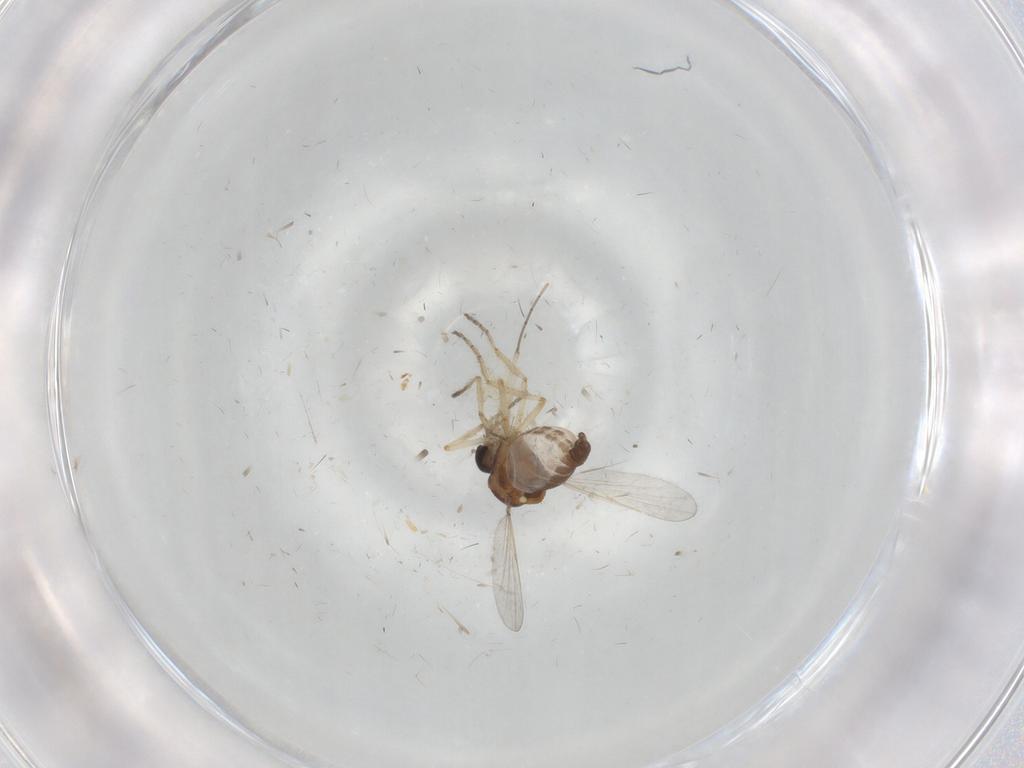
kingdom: Animalia
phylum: Arthropoda
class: Insecta
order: Diptera
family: Ceratopogonidae
